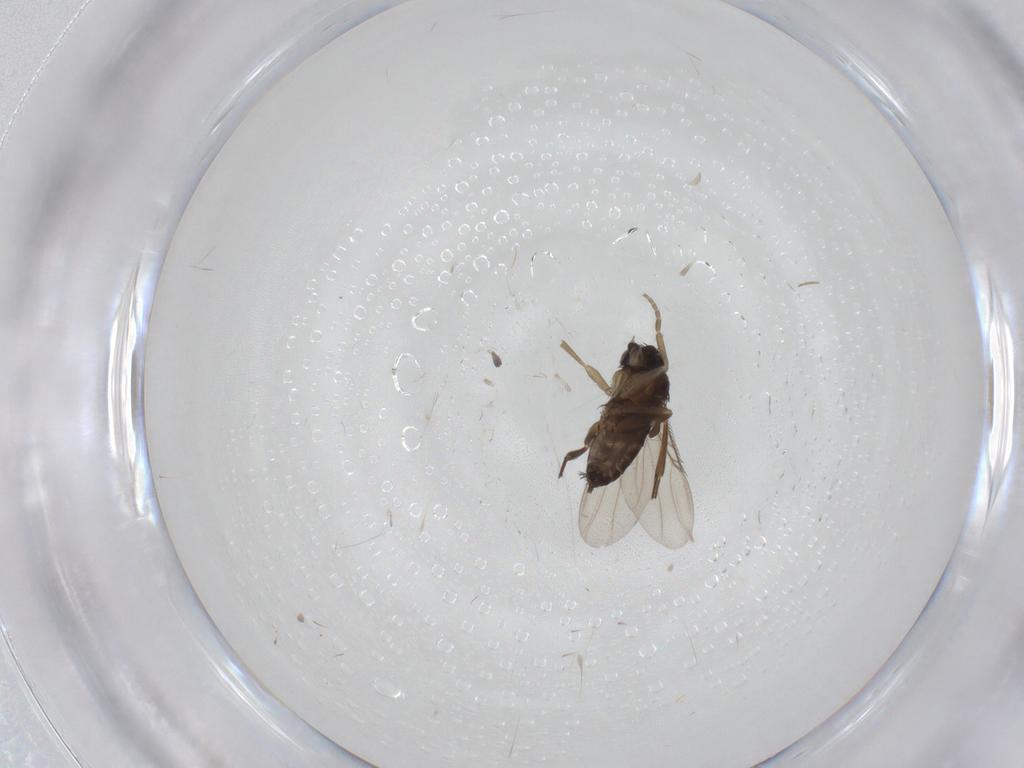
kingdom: Animalia
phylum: Arthropoda
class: Insecta
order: Diptera
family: Phoridae
